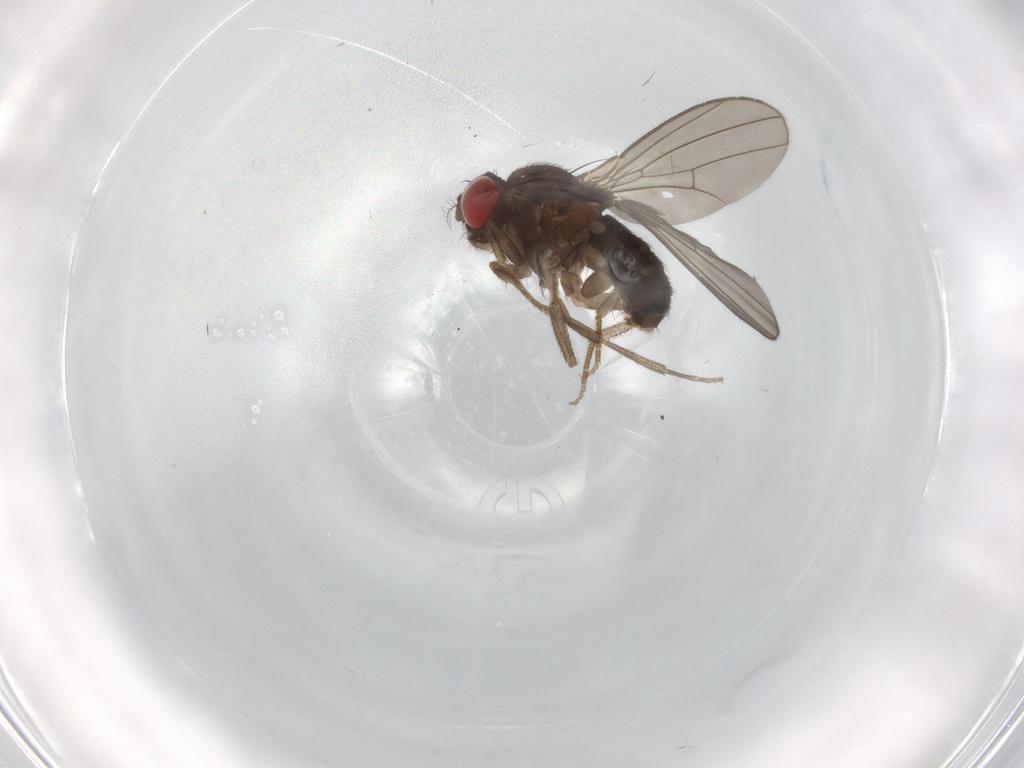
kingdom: Animalia
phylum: Arthropoda
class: Insecta
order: Diptera
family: Drosophilidae
